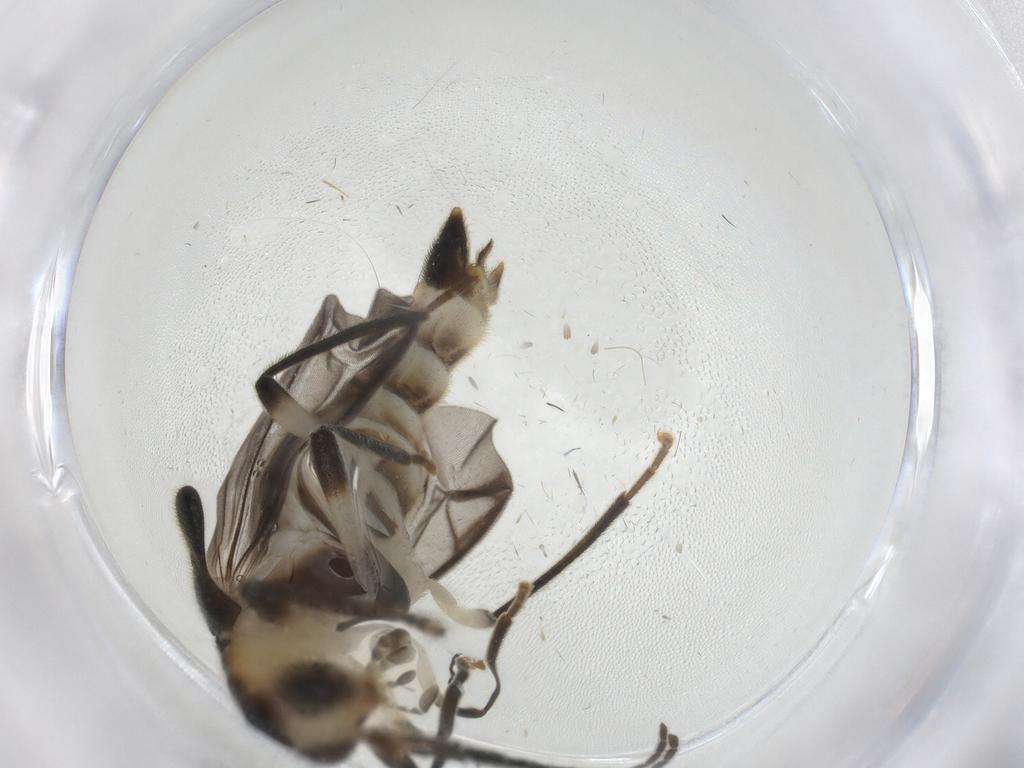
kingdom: Animalia
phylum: Arthropoda
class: Insecta
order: Coleoptera
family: Cantharidae
